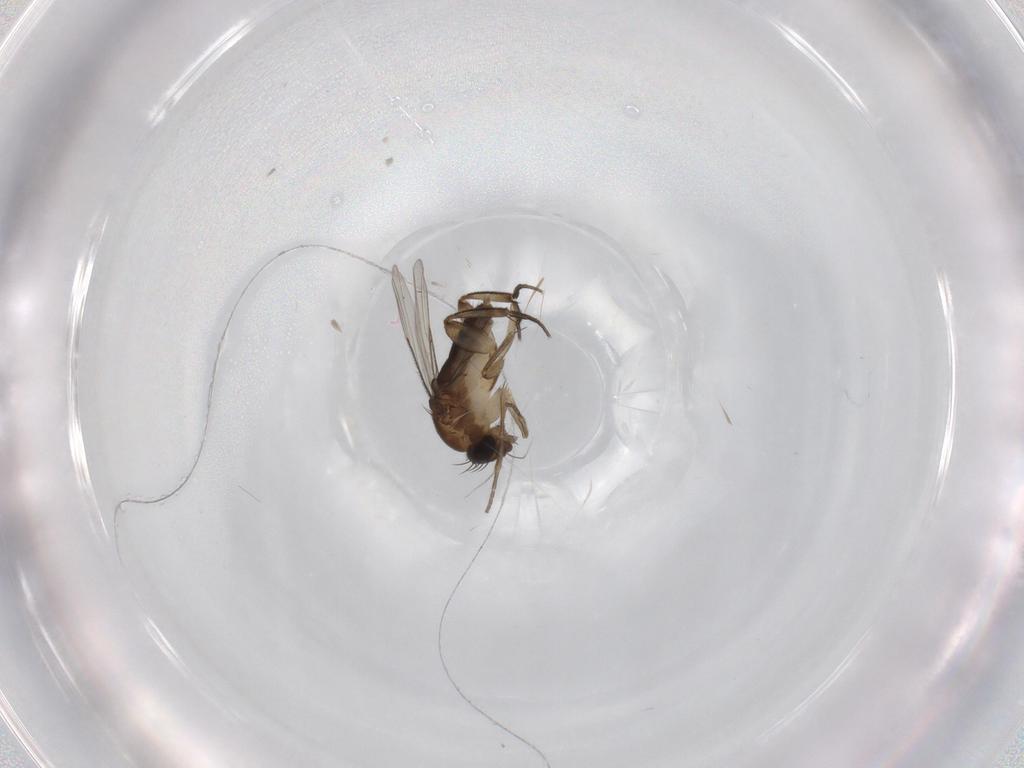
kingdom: Animalia
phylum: Arthropoda
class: Insecta
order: Diptera
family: Phoridae
